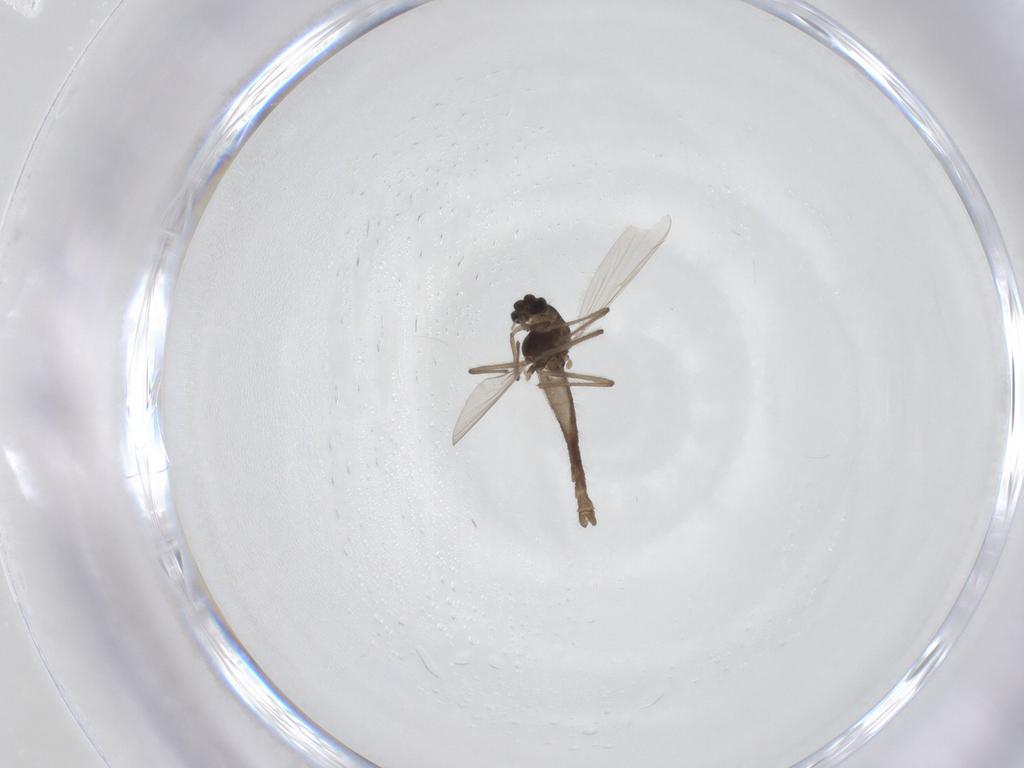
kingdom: Animalia
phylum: Arthropoda
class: Insecta
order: Diptera
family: Chironomidae
